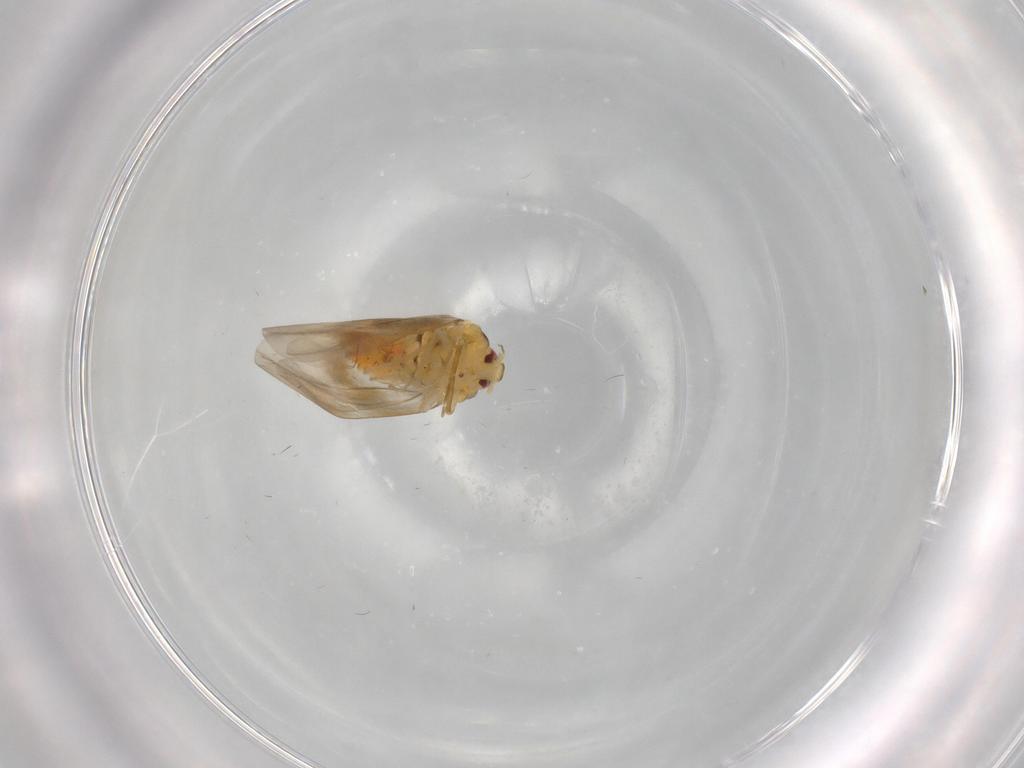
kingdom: Animalia
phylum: Arthropoda
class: Insecta
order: Hemiptera
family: Aleyrodidae
